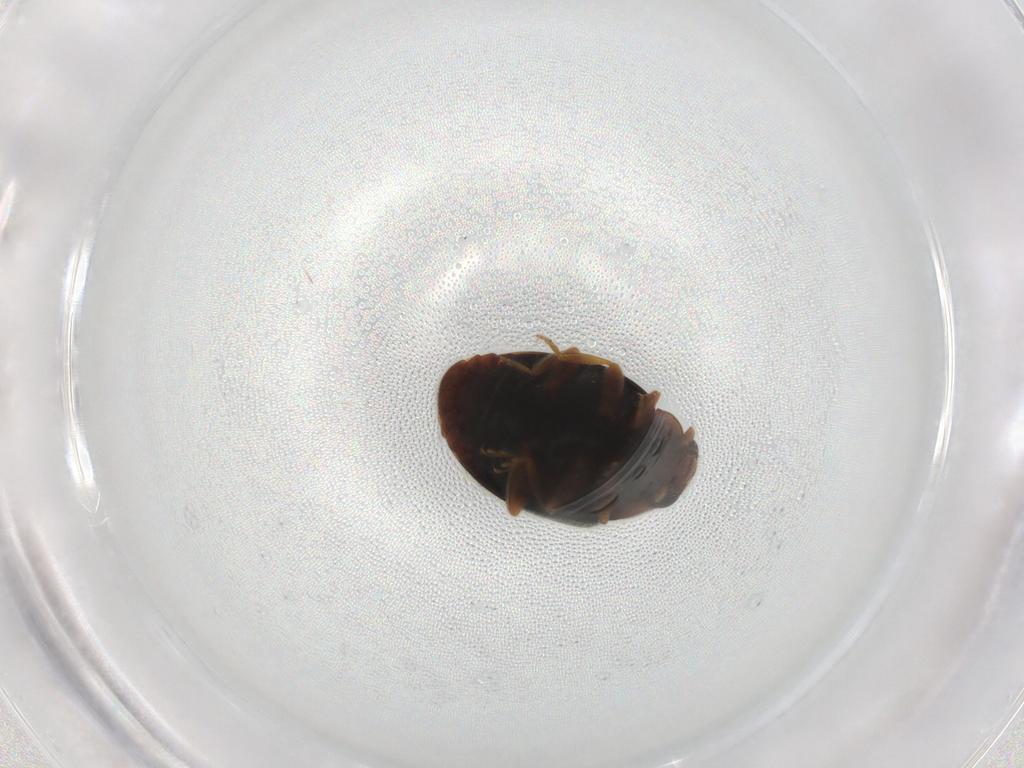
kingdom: Animalia
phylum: Arthropoda
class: Insecta
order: Coleoptera
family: Coccinellidae
